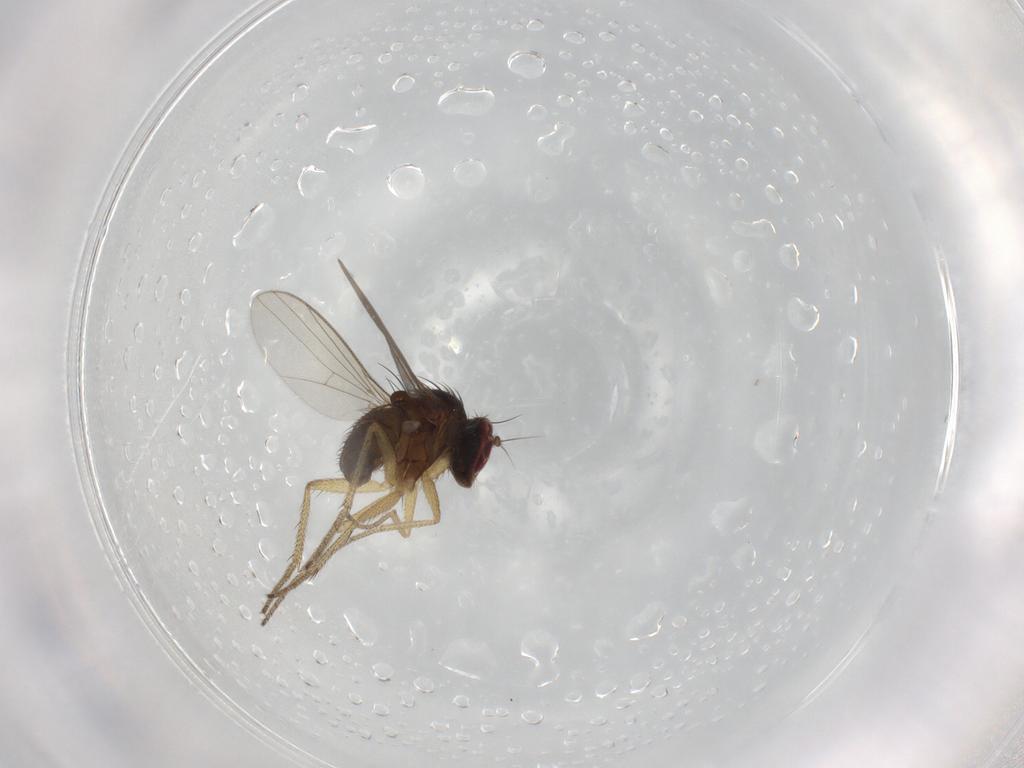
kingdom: Animalia
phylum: Arthropoda
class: Insecta
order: Diptera
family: Dolichopodidae
